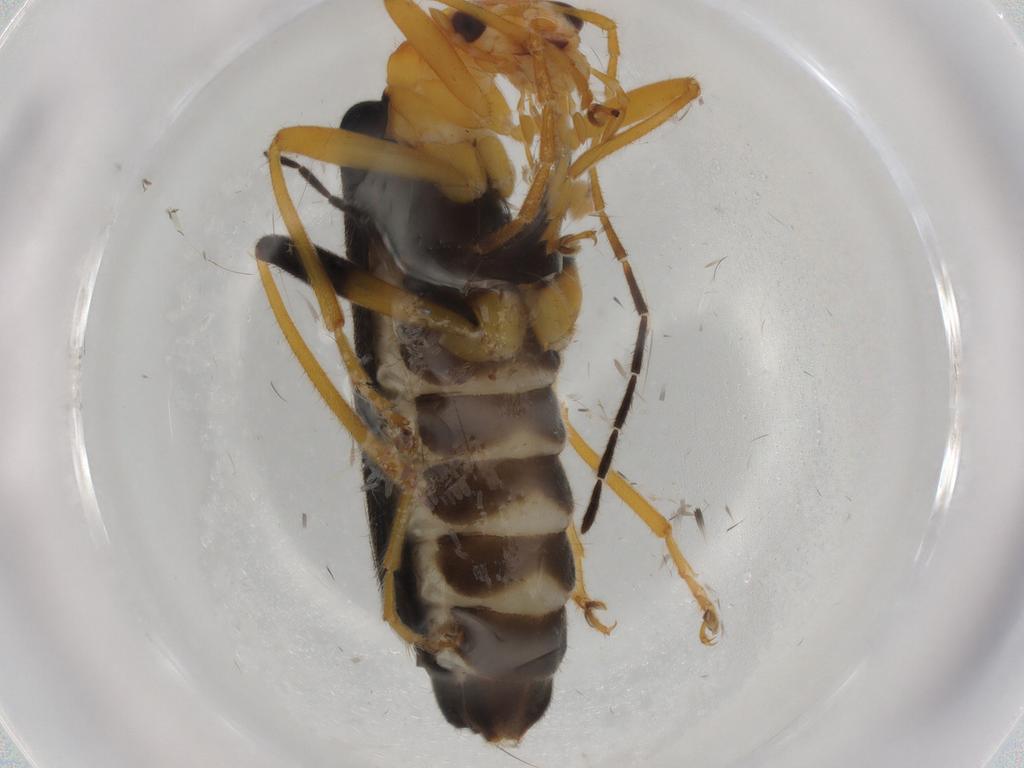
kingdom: Animalia
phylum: Arthropoda
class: Insecta
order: Coleoptera
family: Cantharidae
